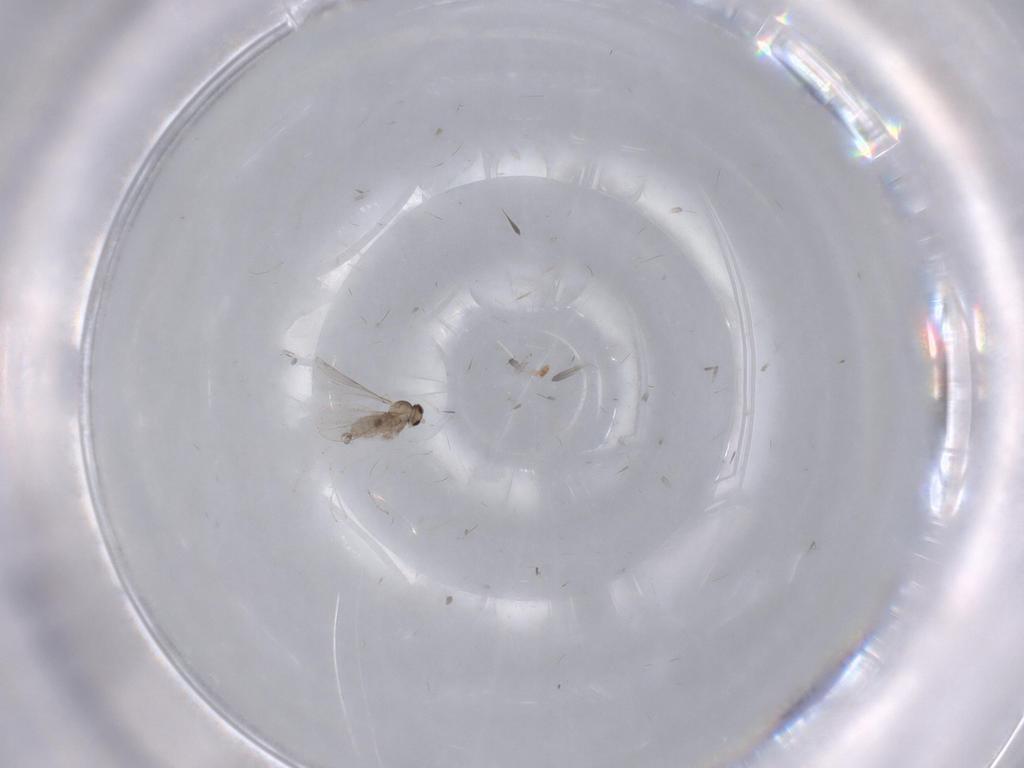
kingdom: Animalia
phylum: Arthropoda
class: Insecta
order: Diptera
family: Cecidomyiidae
